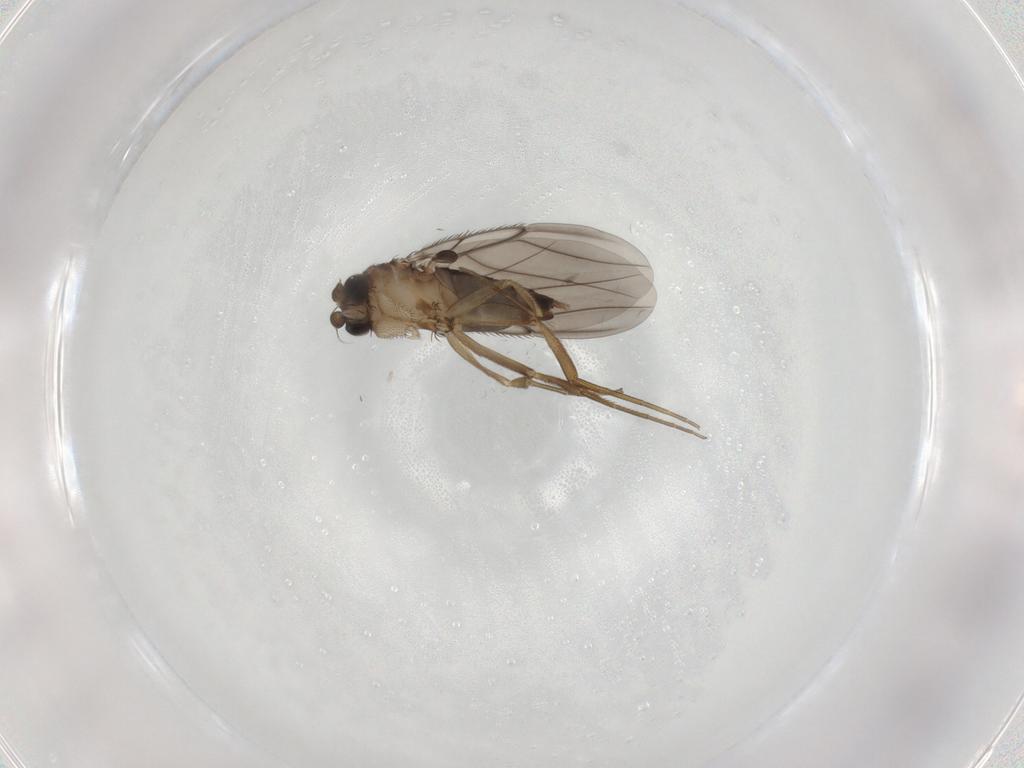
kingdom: Animalia
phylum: Arthropoda
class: Insecta
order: Diptera
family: Phoridae
